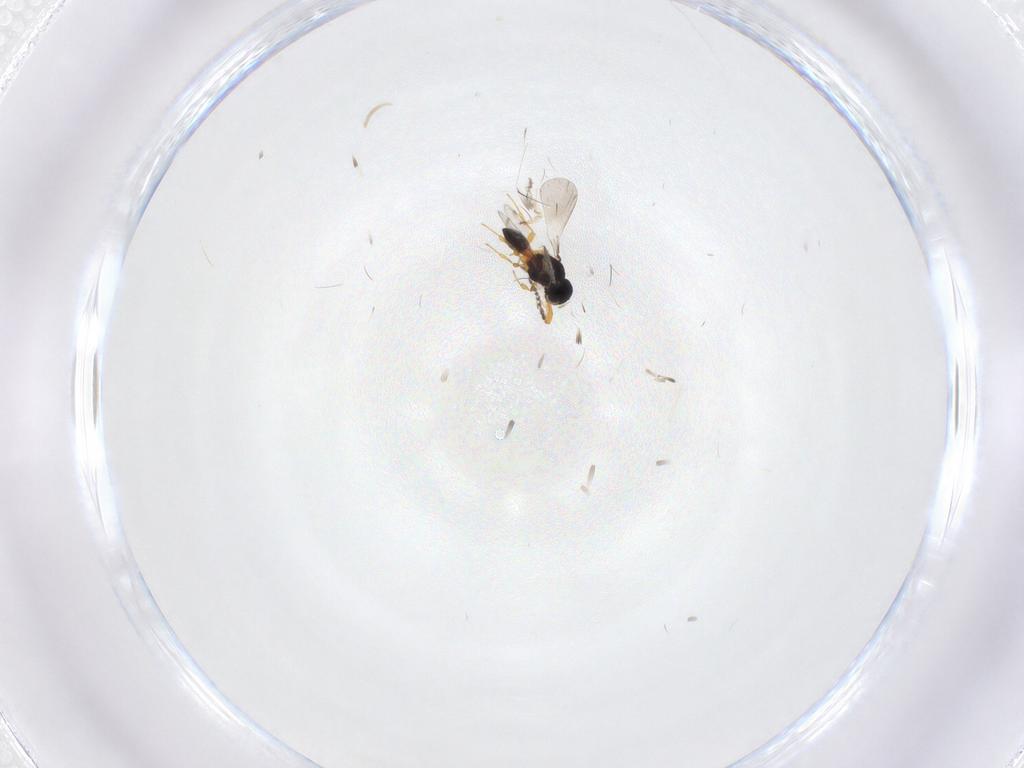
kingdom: Animalia
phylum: Arthropoda
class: Insecta
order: Hymenoptera
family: Platygastridae
